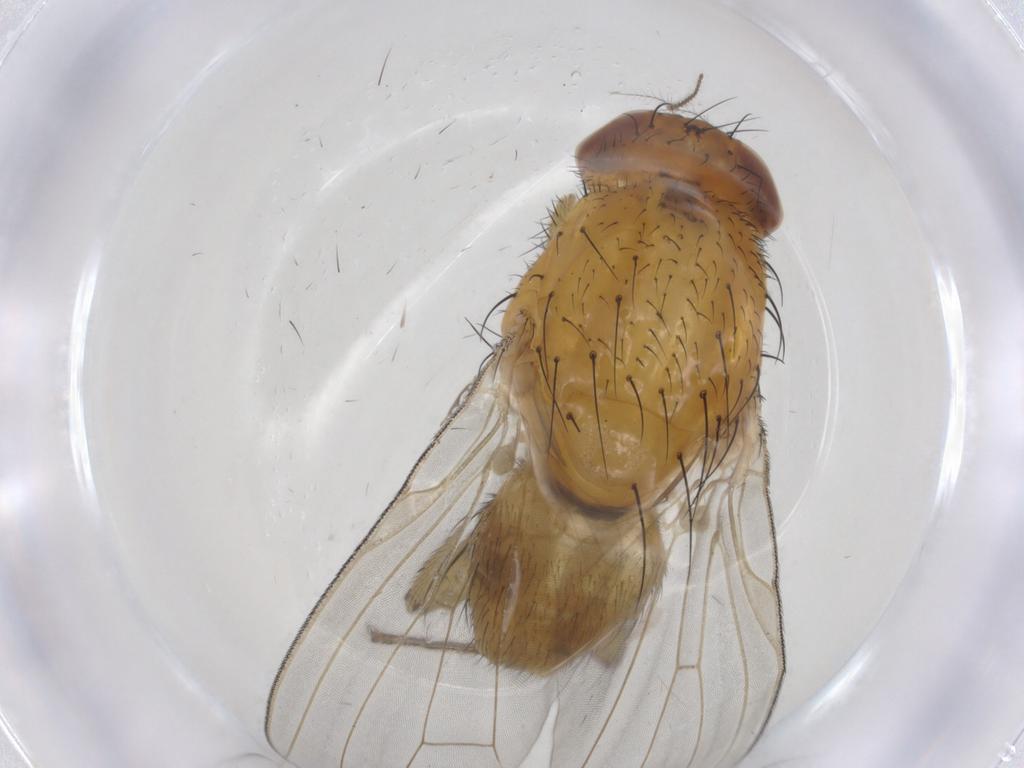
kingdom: Animalia
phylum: Arthropoda
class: Insecta
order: Diptera
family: Lauxaniidae
